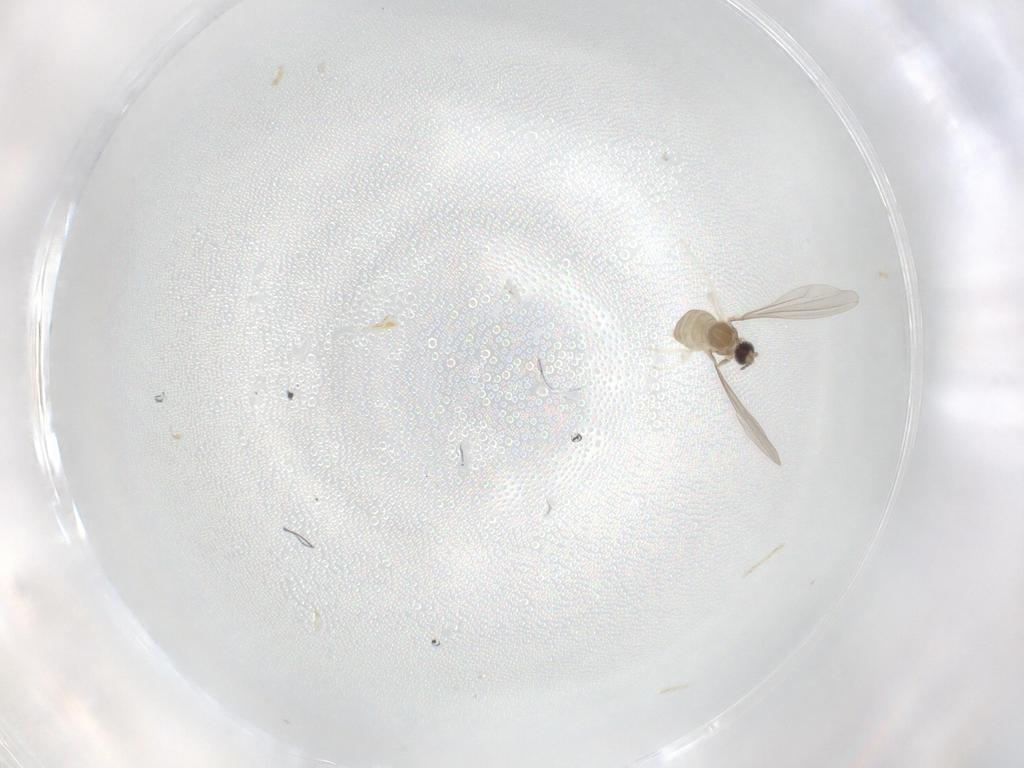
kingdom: Animalia
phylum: Arthropoda
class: Insecta
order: Diptera
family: Cecidomyiidae
